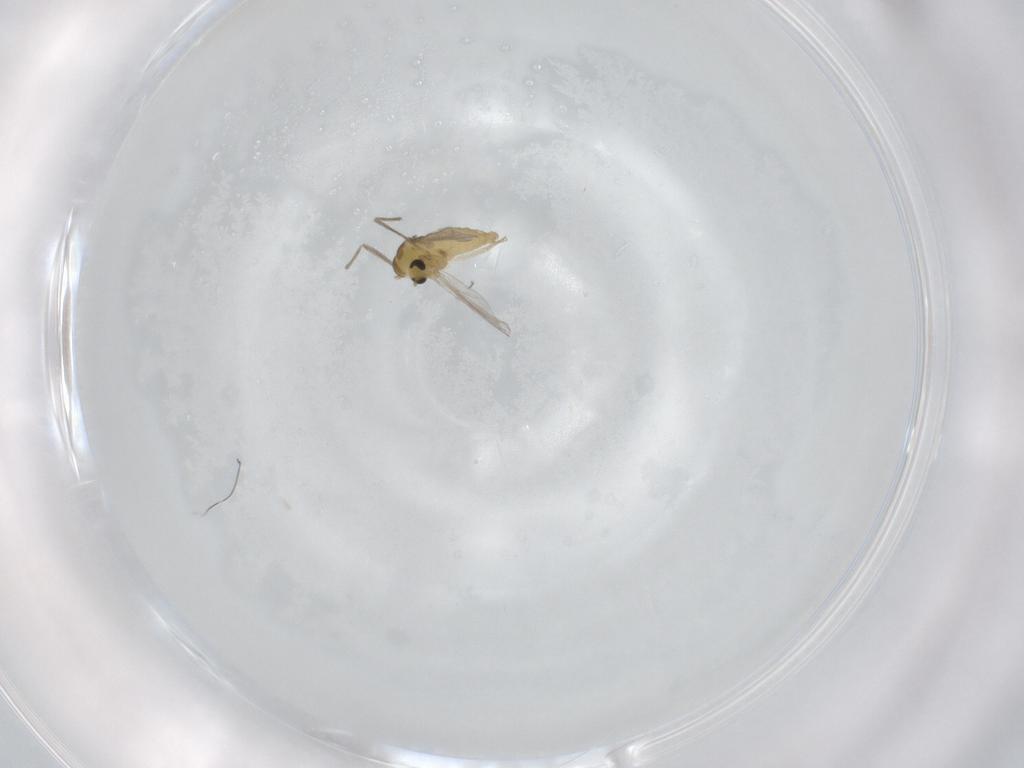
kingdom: Animalia
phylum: Arthropoda
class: Insecta
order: Diptera
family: Chironomidae
